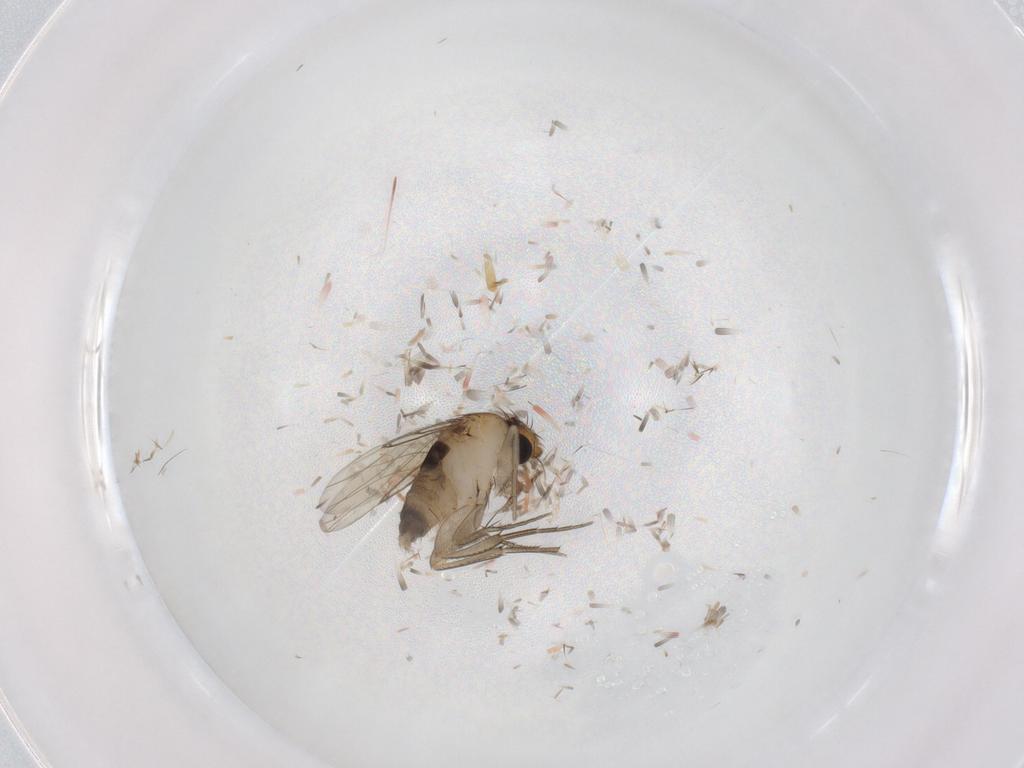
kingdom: Animalia
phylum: Arthropoda
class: Insecta
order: Diptera
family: Phoridae
